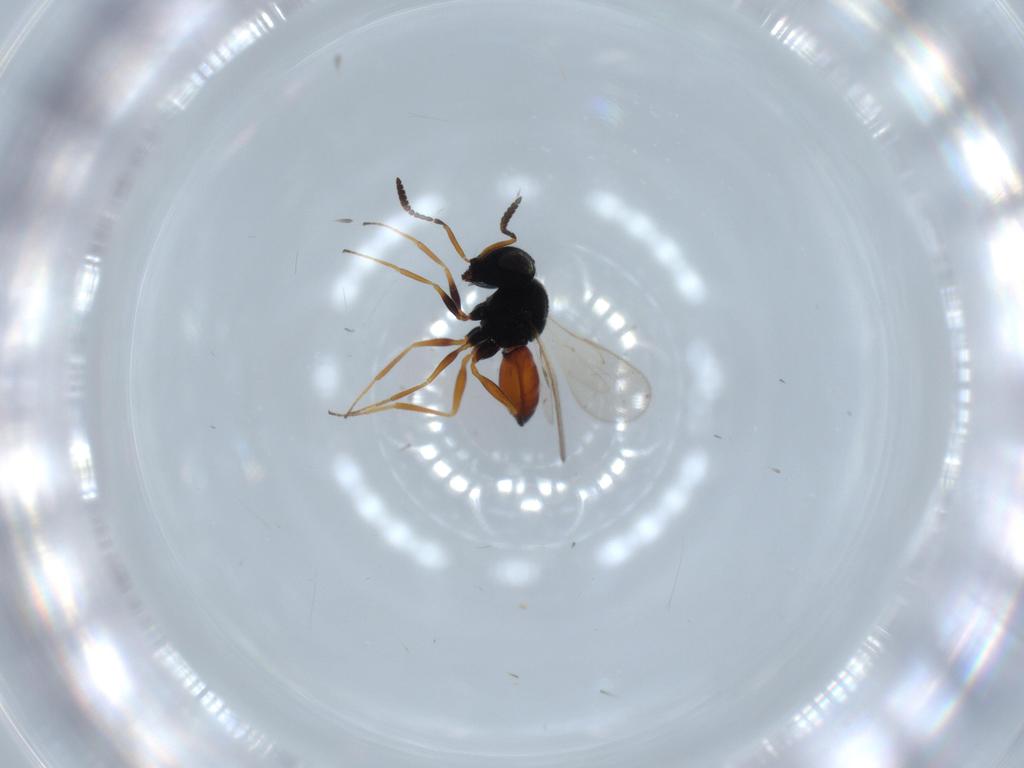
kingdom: Animalia
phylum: Arthropoda
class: Insecta
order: Hymenoptera
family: Scelionidae
